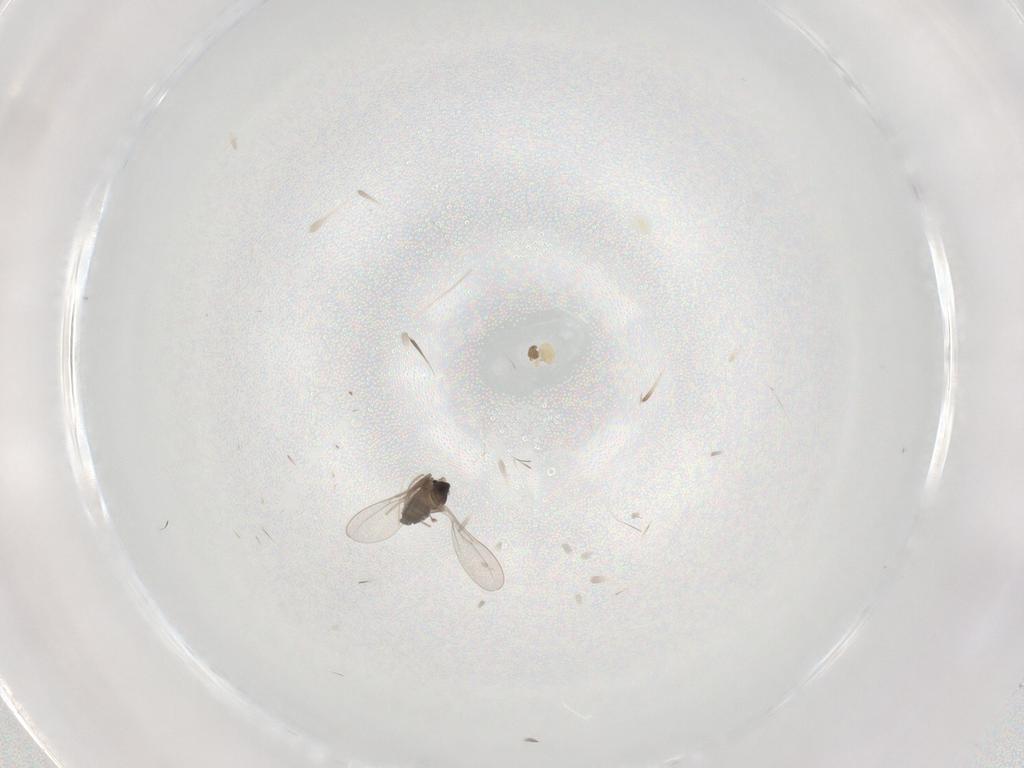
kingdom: Animalia
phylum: Arthropoda
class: Insecta
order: Diptera
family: Cecidomyiidae
